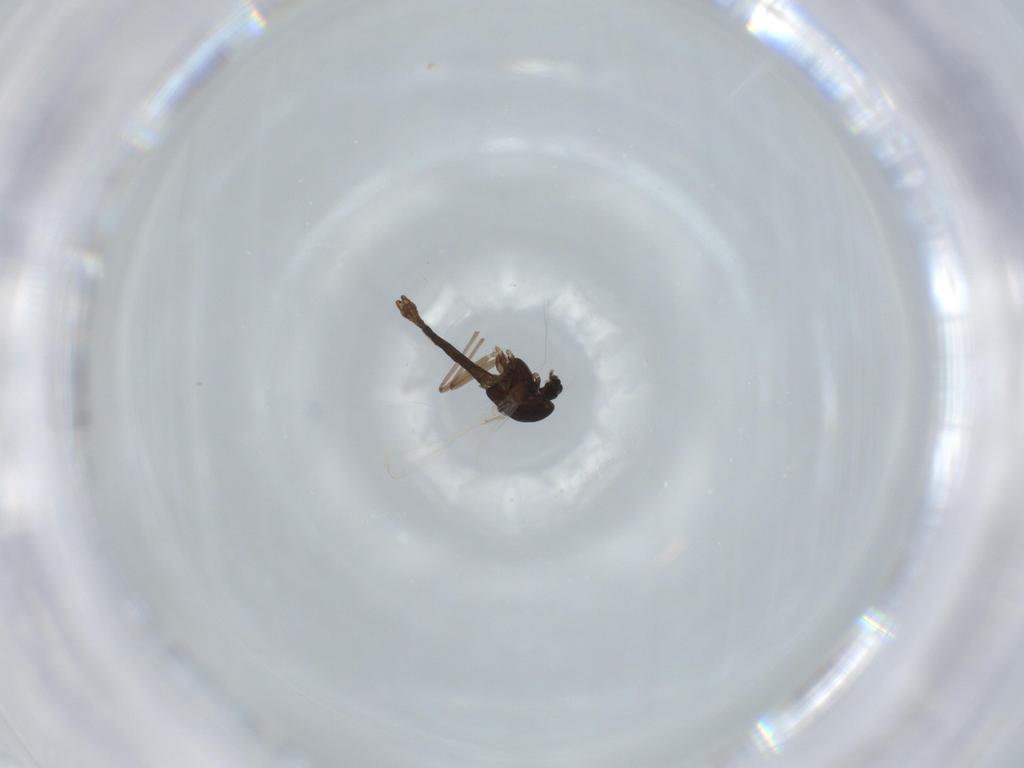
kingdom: Animalia
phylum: Arthropoda
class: Insecta
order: Diptera
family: Chironomidae
